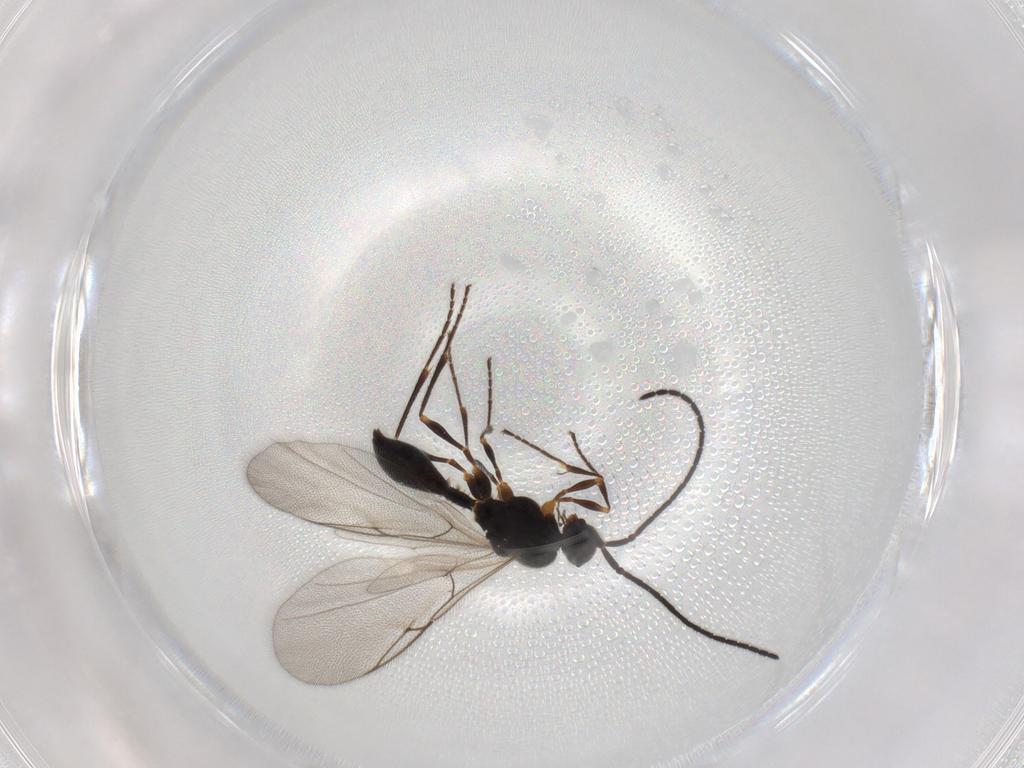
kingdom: Animalia
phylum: Arthropoda
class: Insecta
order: Hymenoptera
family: Diapriidae
